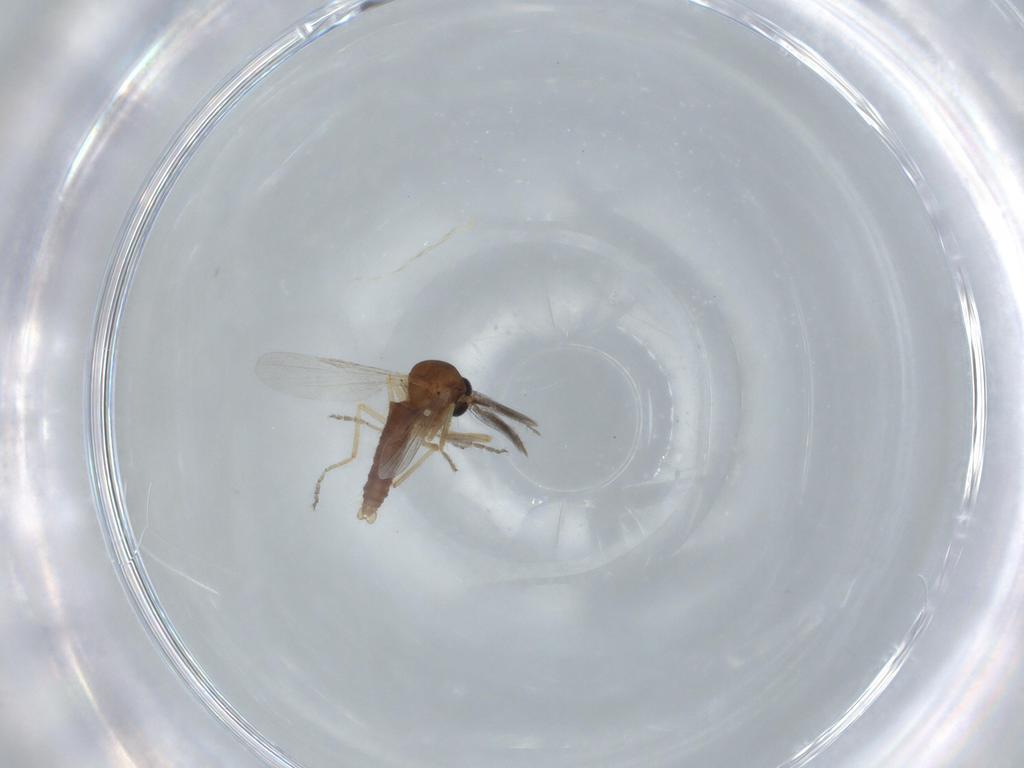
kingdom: Animalia
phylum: Arthropoda
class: Insecta
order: Diptera
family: Ceratopogonidae
